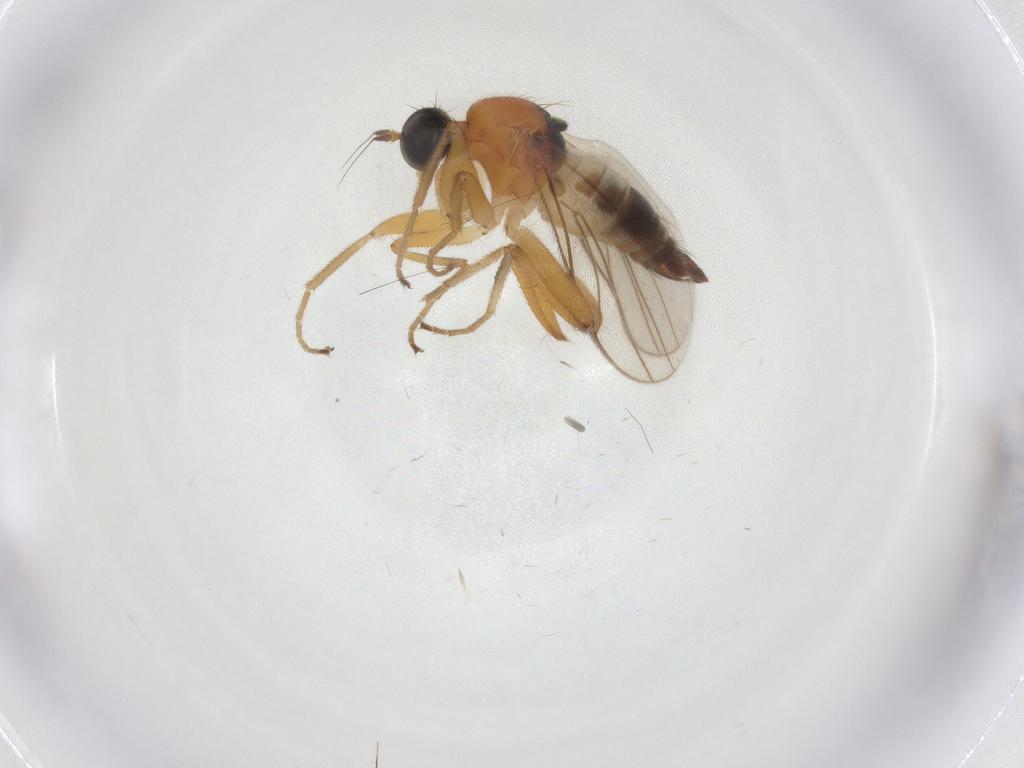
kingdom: Animalia
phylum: Arthropoda
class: Insecta
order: Diptera
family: Hybotidae
